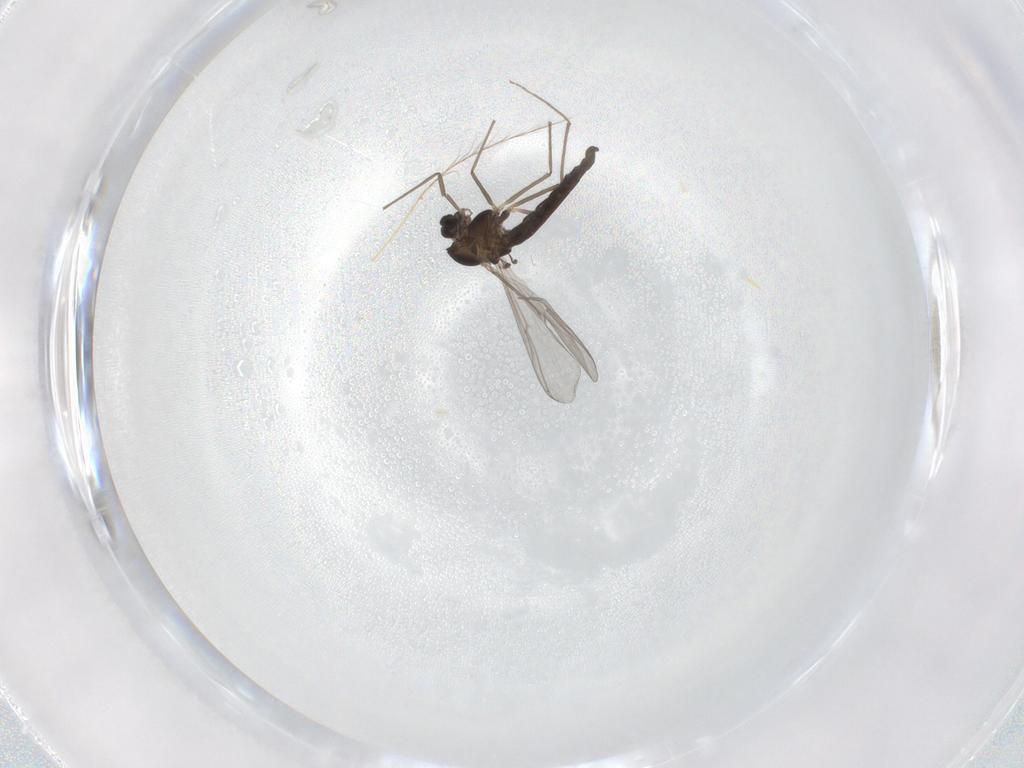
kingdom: Animalia
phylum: Arthropoda
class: Insecta
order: Diptera
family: Chironomidae
